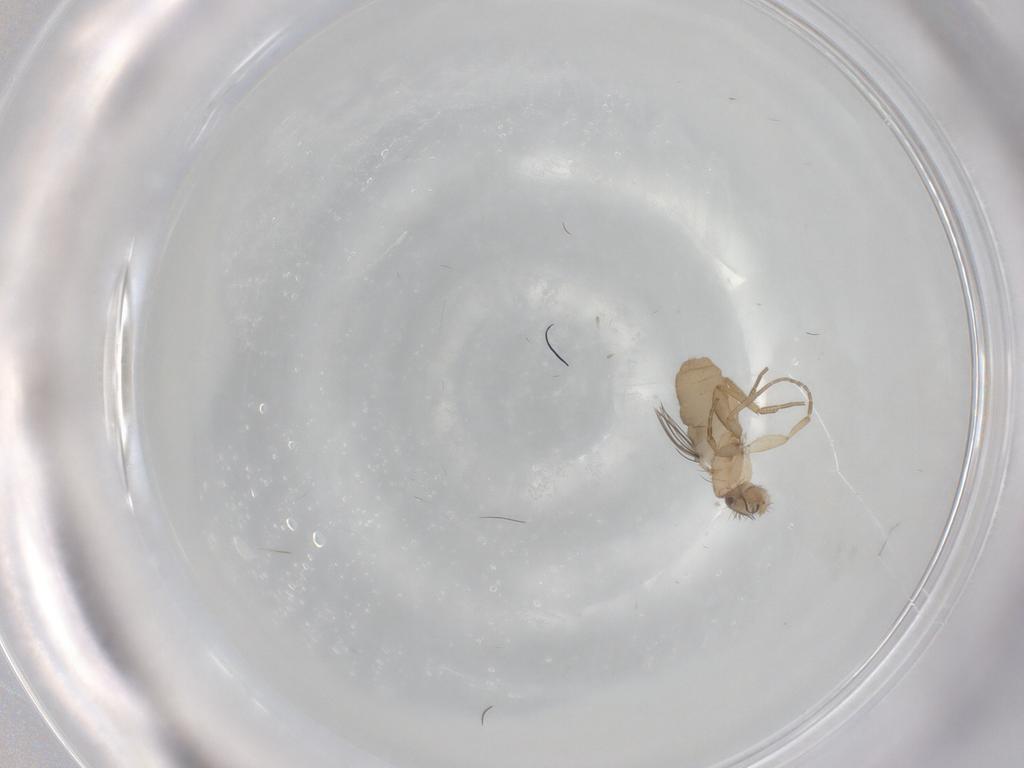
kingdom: Animalia
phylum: Arthropoda
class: Insecta
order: Diptera
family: Phoridae
